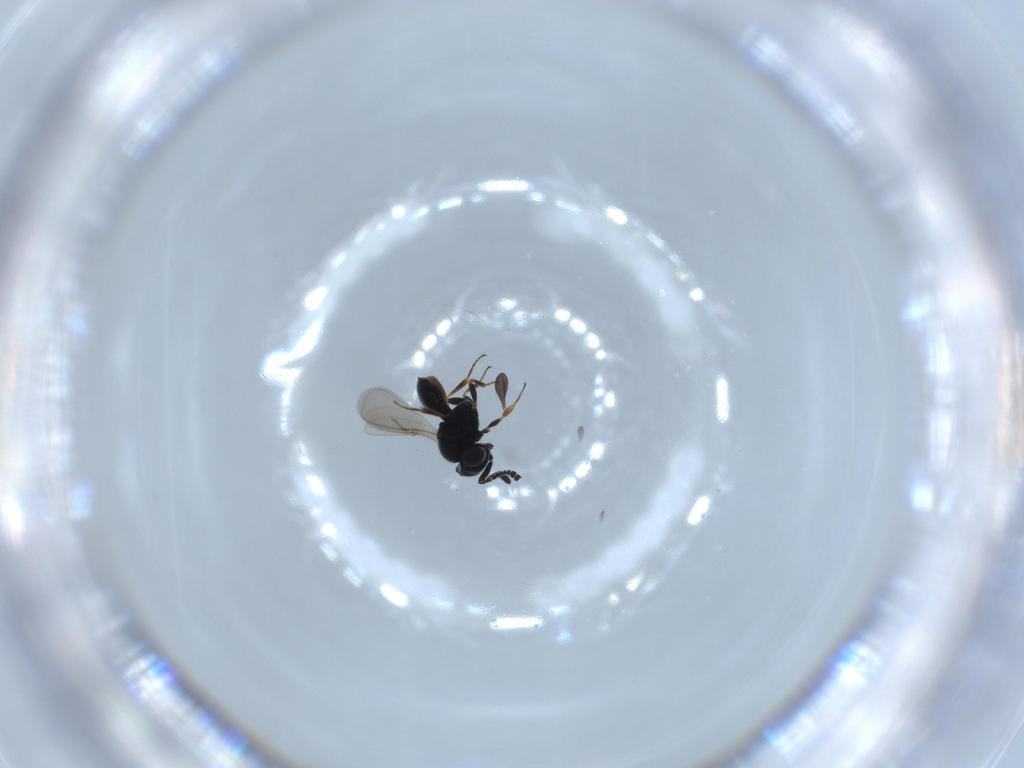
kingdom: Animalia
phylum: Arthropoda
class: Insecta
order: Hymenoptera
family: Scelionidae
